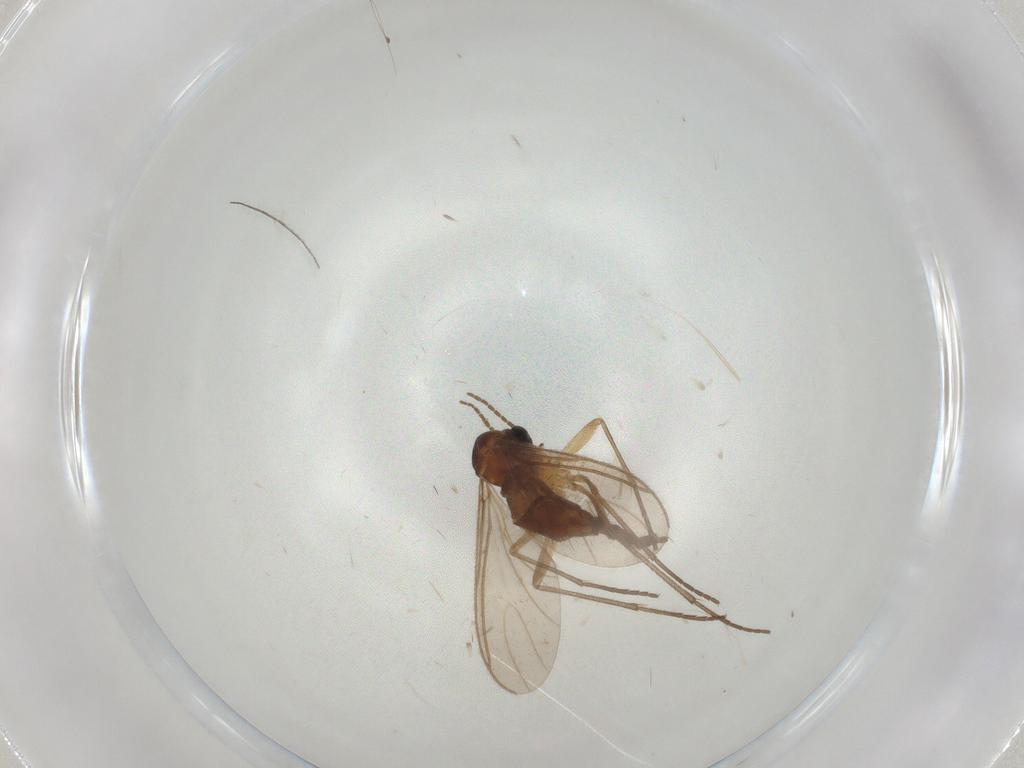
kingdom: Animalia
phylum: Arthropoda
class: Insecta
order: Diptera
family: Sciaridae
